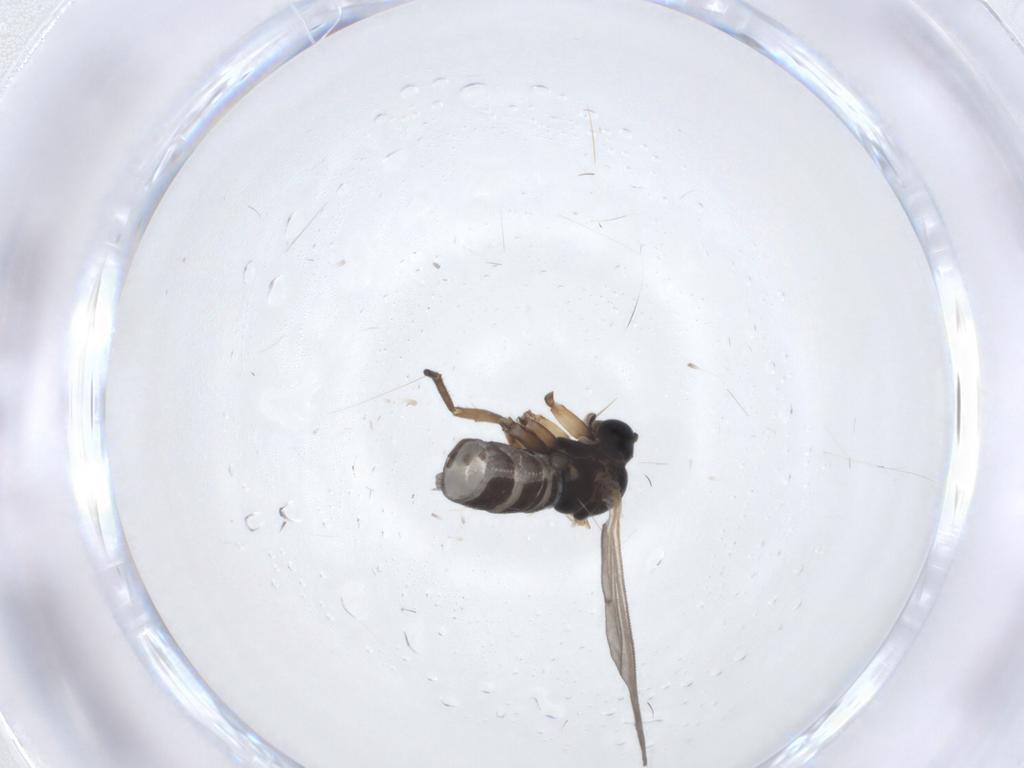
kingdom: Animalia
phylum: Arthropoda
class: Insecta
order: Diptera
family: Sciaridae
